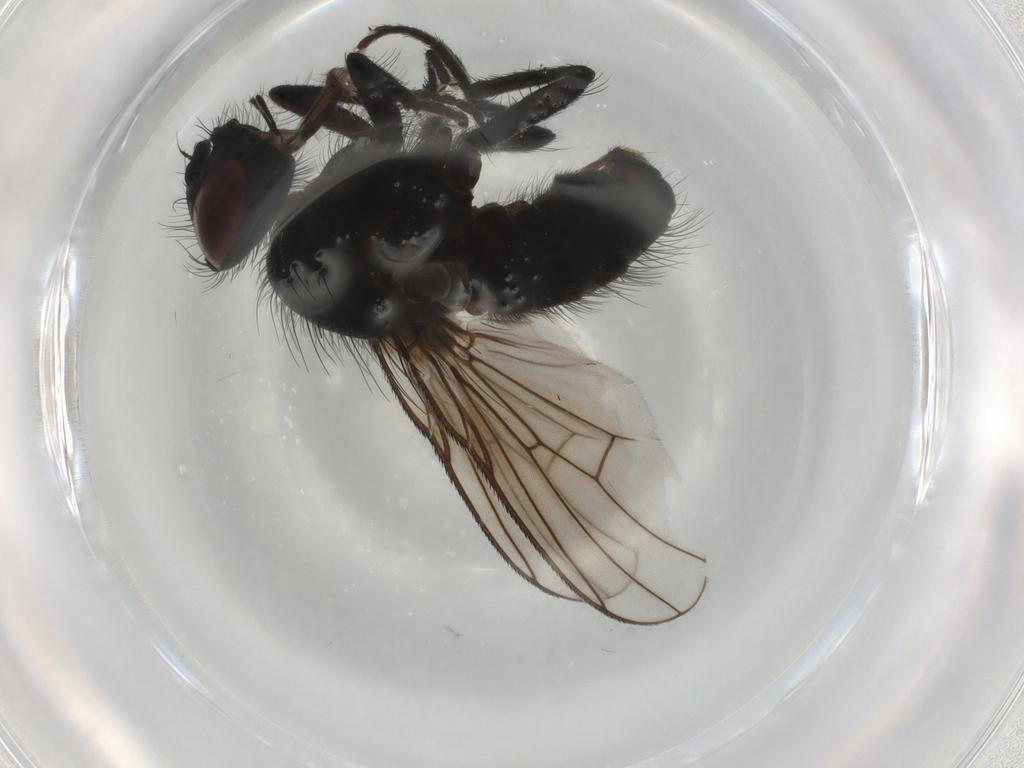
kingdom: Animalia
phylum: Arthropoda
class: Insecta
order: Diptera
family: Muscidae
